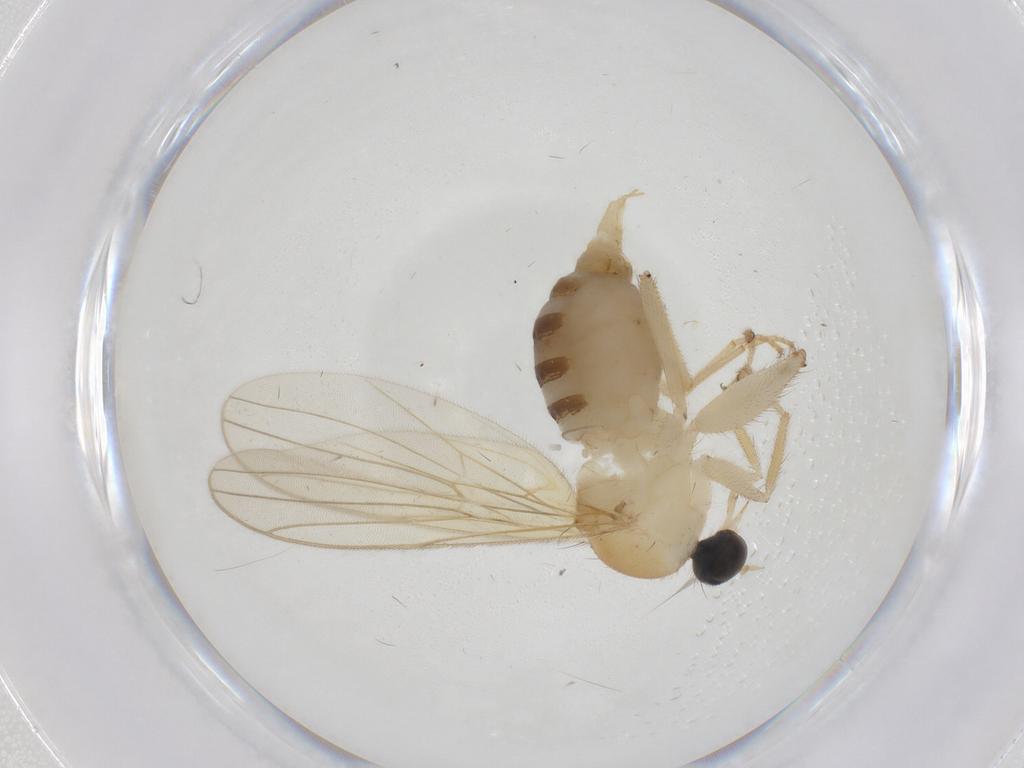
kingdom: Animalia
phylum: Arthropoda
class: Insecta
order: Diptera
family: Hybotidae
